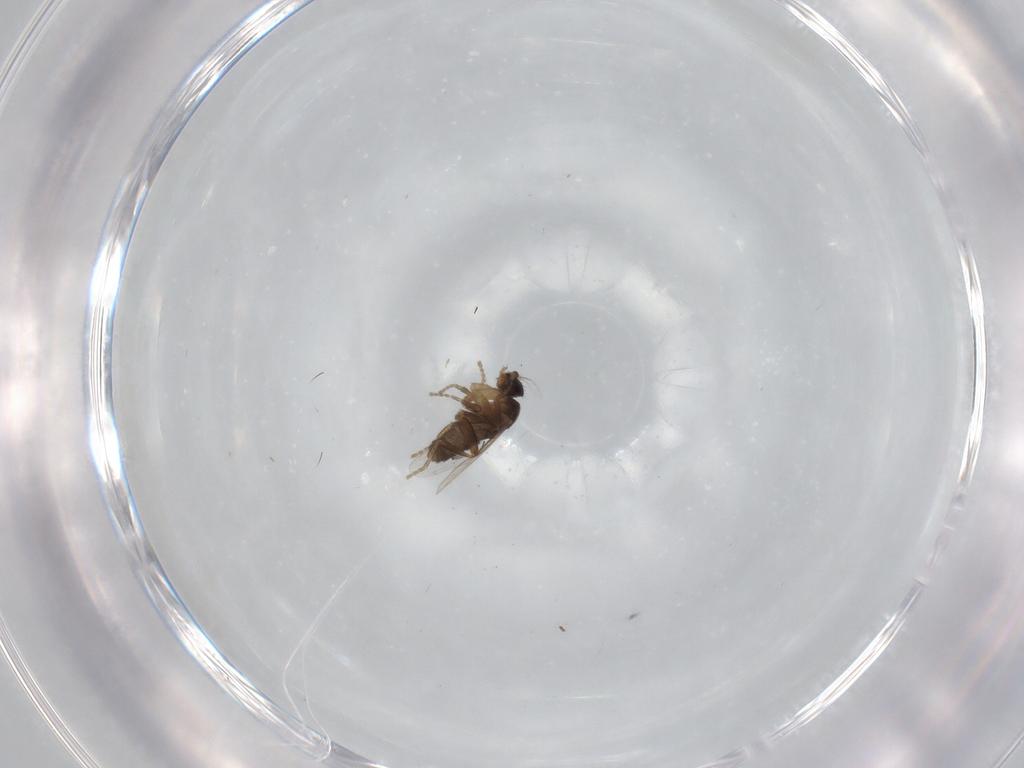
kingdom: Animalia
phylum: Arthropoda
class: Insecta
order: Diptera
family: Phoridae
